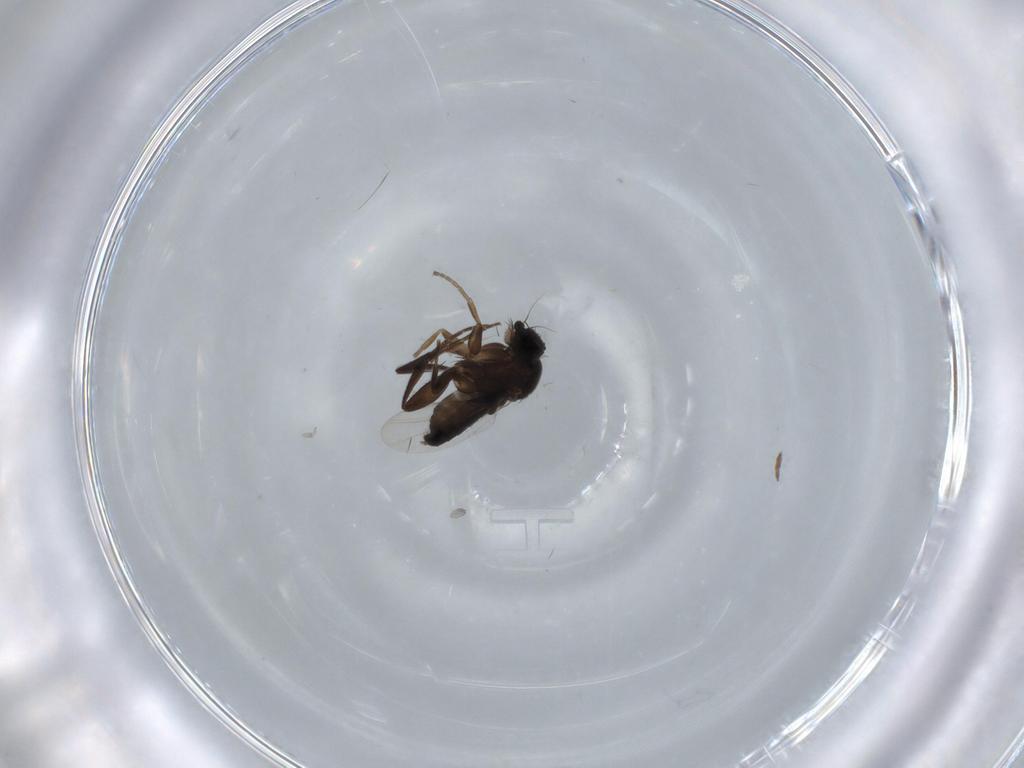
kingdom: Animalia
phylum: Arthropoda
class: Insecta
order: Diptera
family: Phoridae
